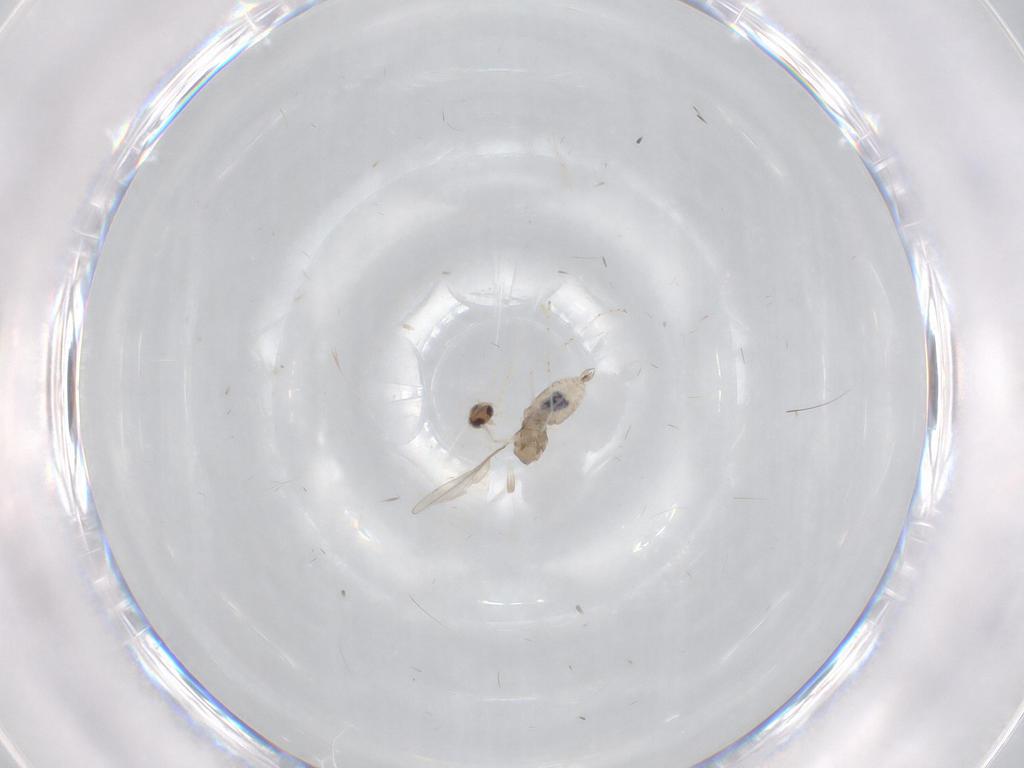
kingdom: Animalia
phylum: Arthropoda
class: Insecta
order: Diptera
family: Cecidomyiidae
